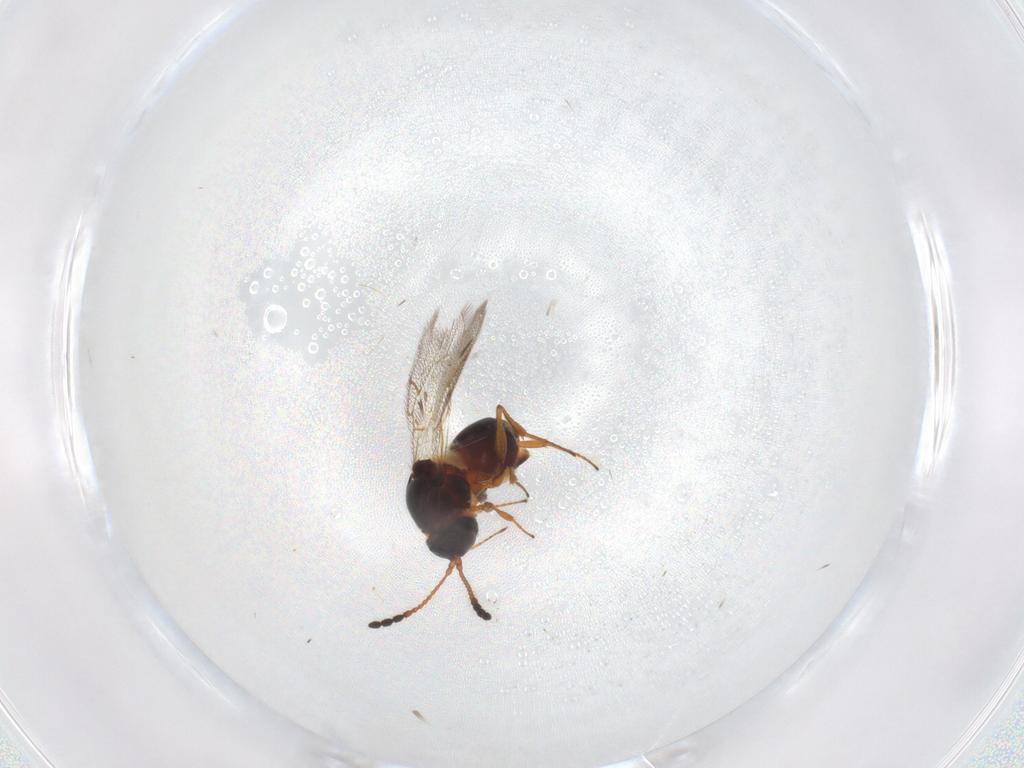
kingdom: Animalia
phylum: Arthropoda
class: Insecta
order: Hymenoptera
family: Figitidae
